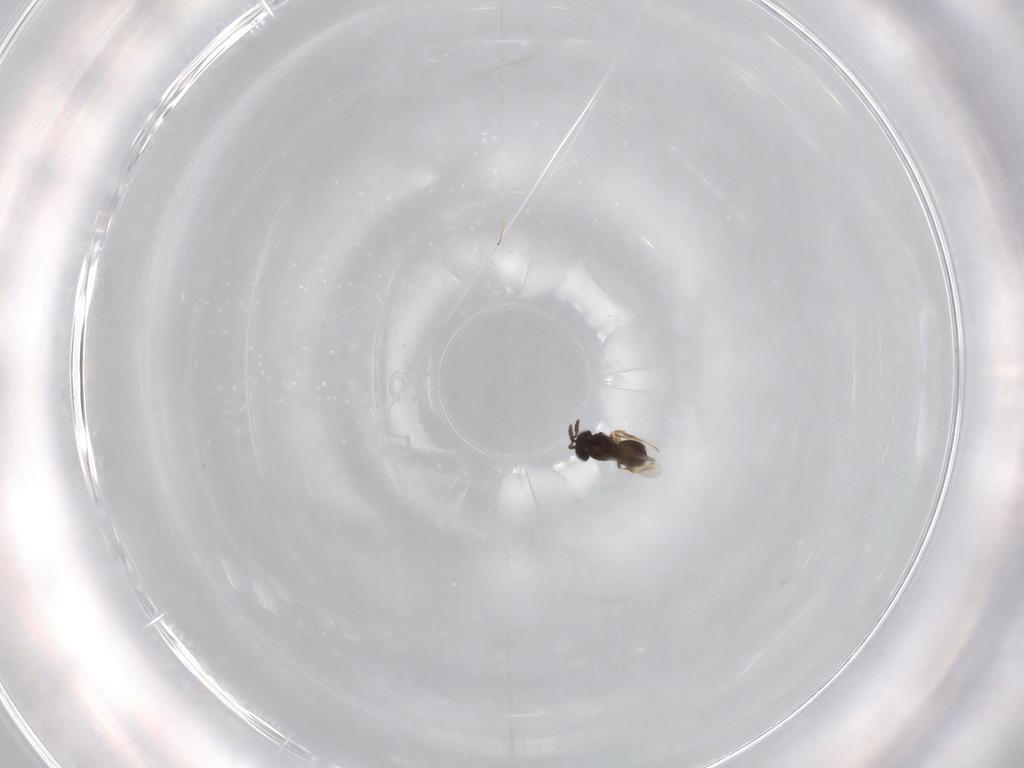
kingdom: Animalia
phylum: Arthropoda
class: Insecta
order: Hymenoptera
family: Scelionidae
